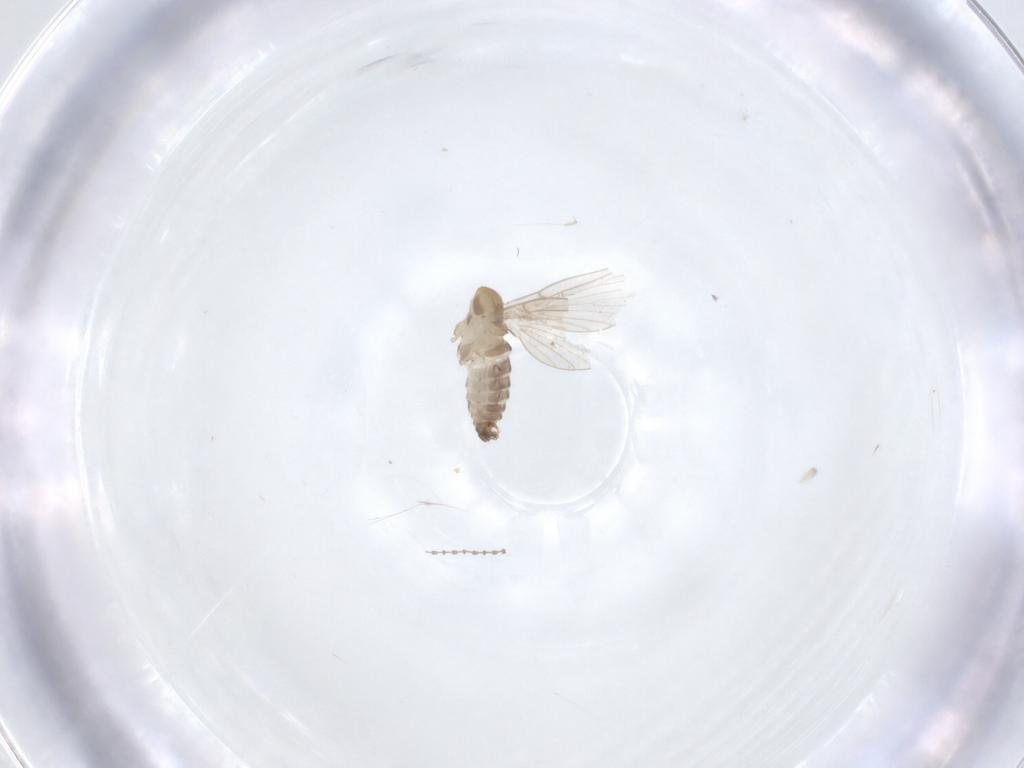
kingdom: Animalia
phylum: Arthropoda
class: Insecta
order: Diptera
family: Cecidomyiidae
